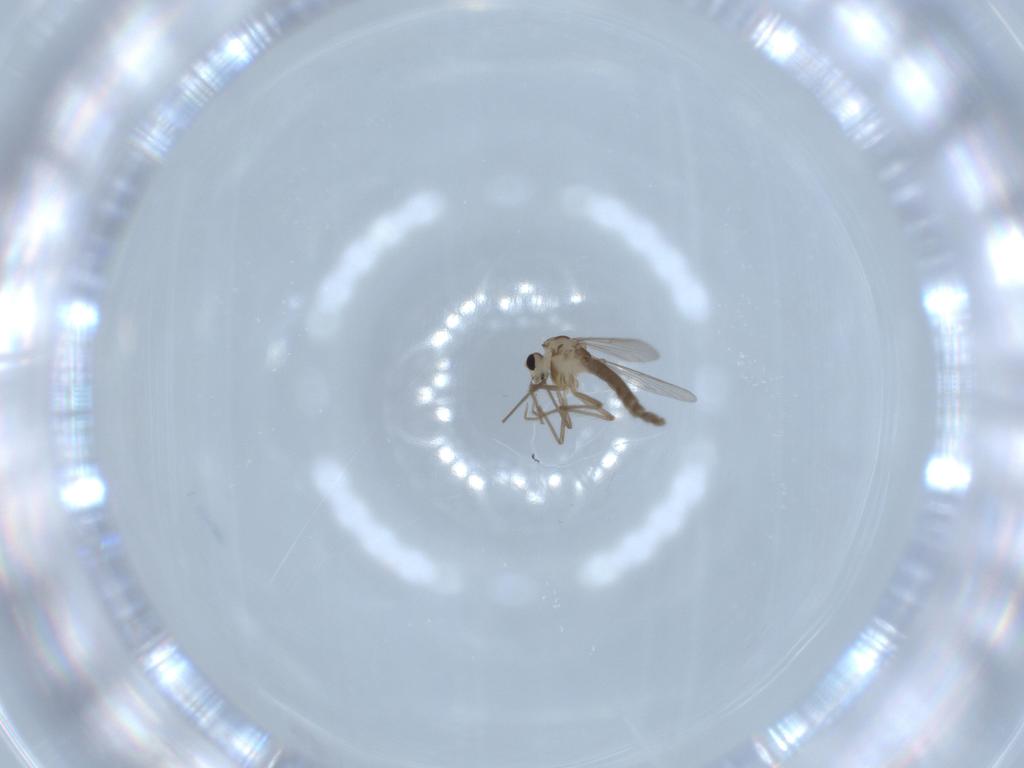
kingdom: Animalia
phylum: Arthropoda
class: Insecta
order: Diptera
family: Chironomidae
